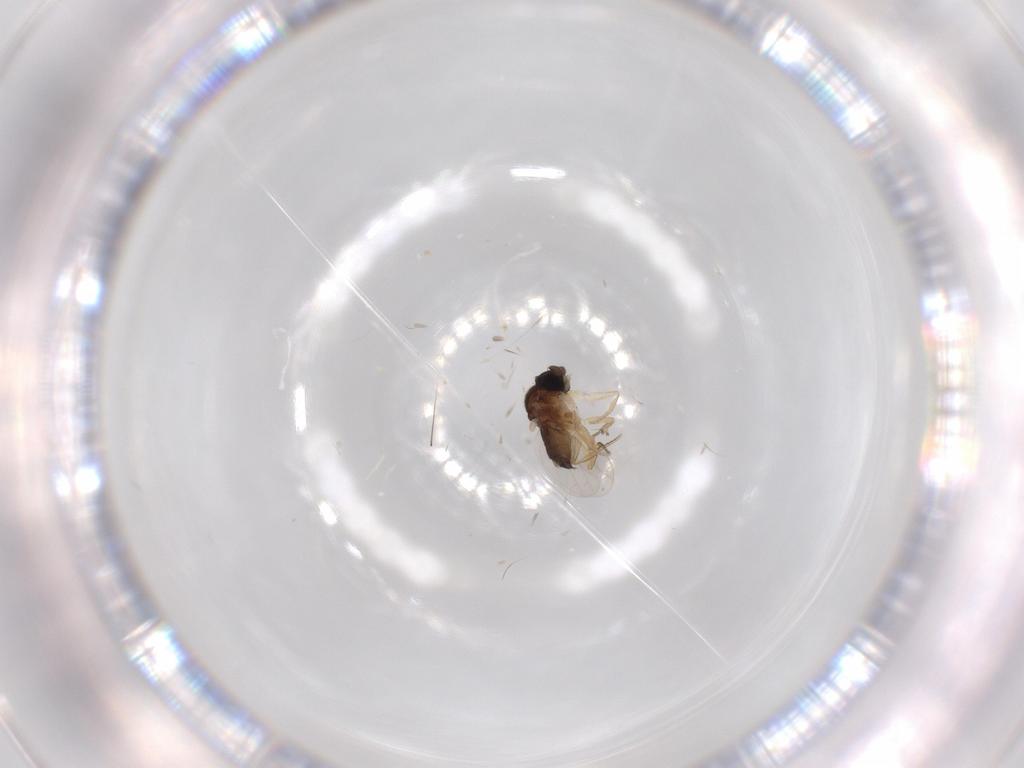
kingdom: Animalia
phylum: Arthropoda
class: Insecta
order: Diptera
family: Phoridae
